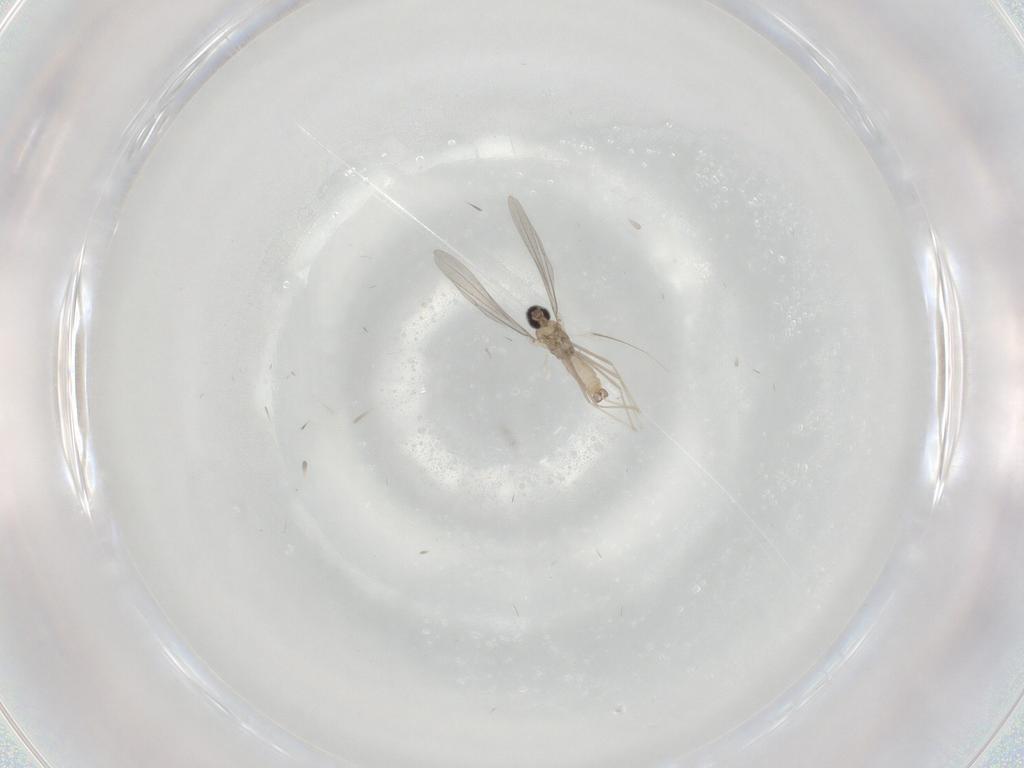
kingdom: Animalia
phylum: Arthropoda
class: Insecta
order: Diptera
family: Cecidomyiidae
